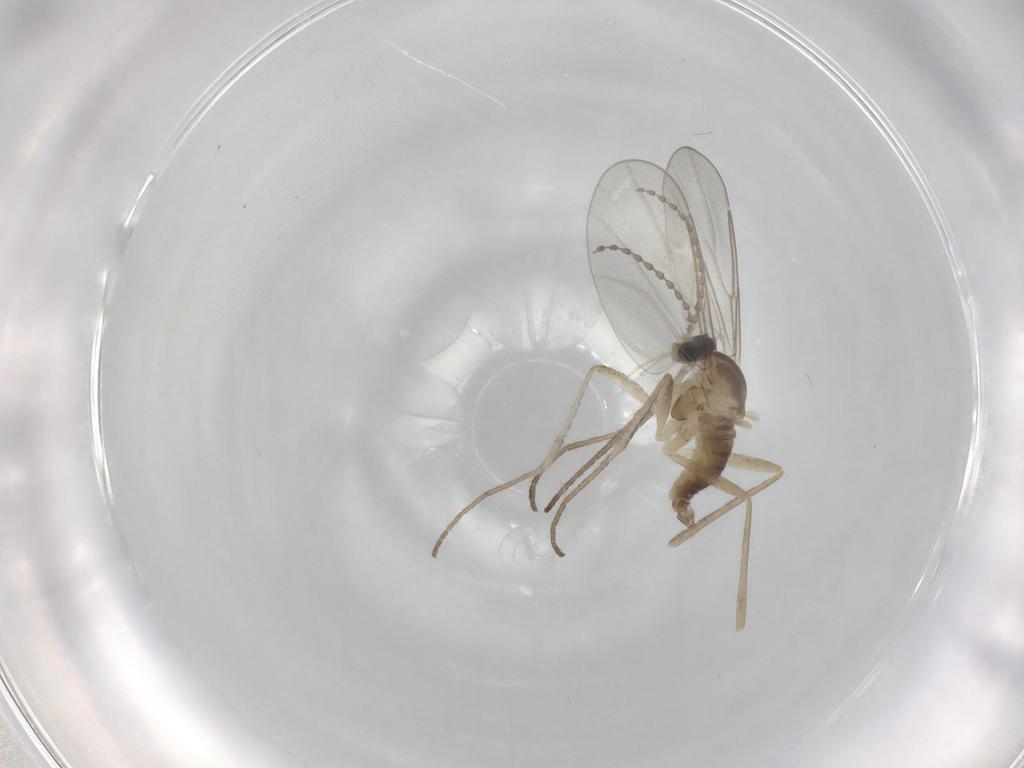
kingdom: Animalia
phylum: Arthropoda
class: Insecta
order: Diptera
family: Cecidomyiidae
